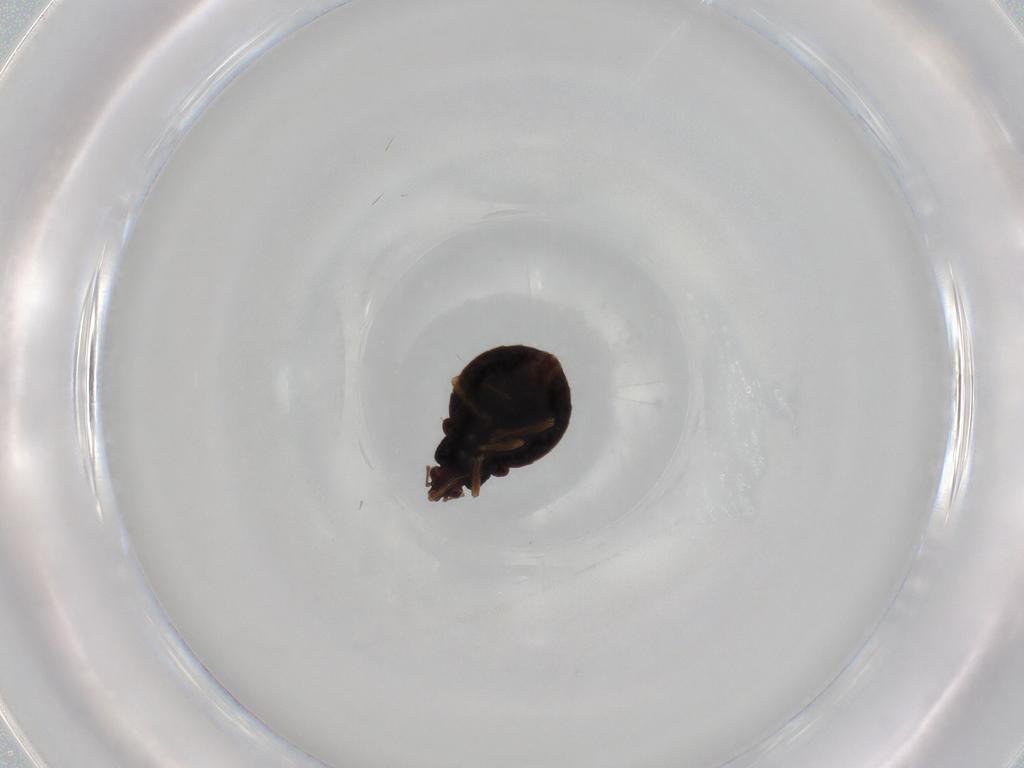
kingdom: Animalia
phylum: Arthropoda
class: Insecta
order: Hemiptera
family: Microphysidae
